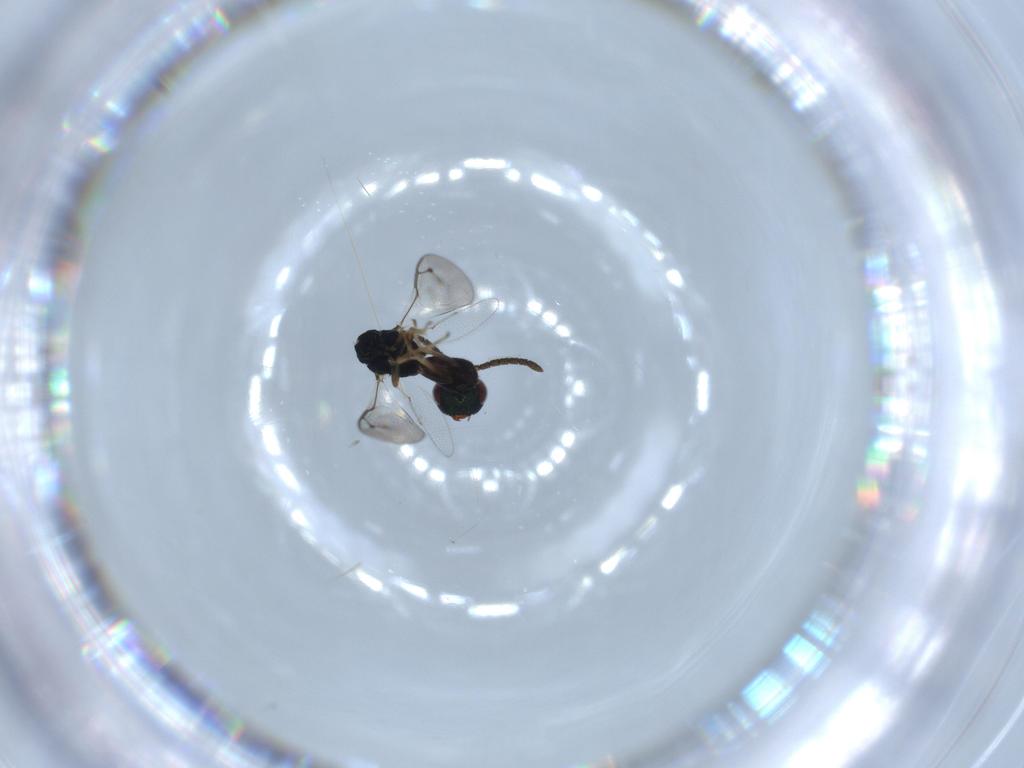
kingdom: Animalia
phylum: Arthropoda
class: Insecta
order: Hymenoptera
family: Pteromalidae
